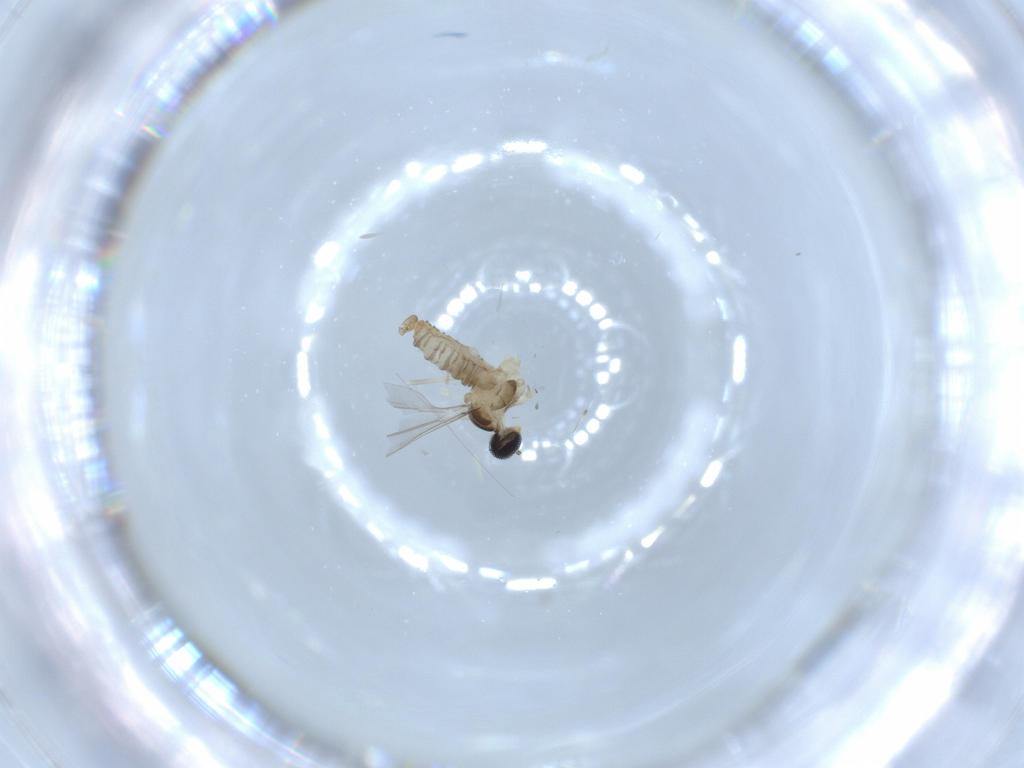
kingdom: Animalia
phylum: Arthropoda
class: Insecta
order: Diptera
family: Cecidomyiidae
